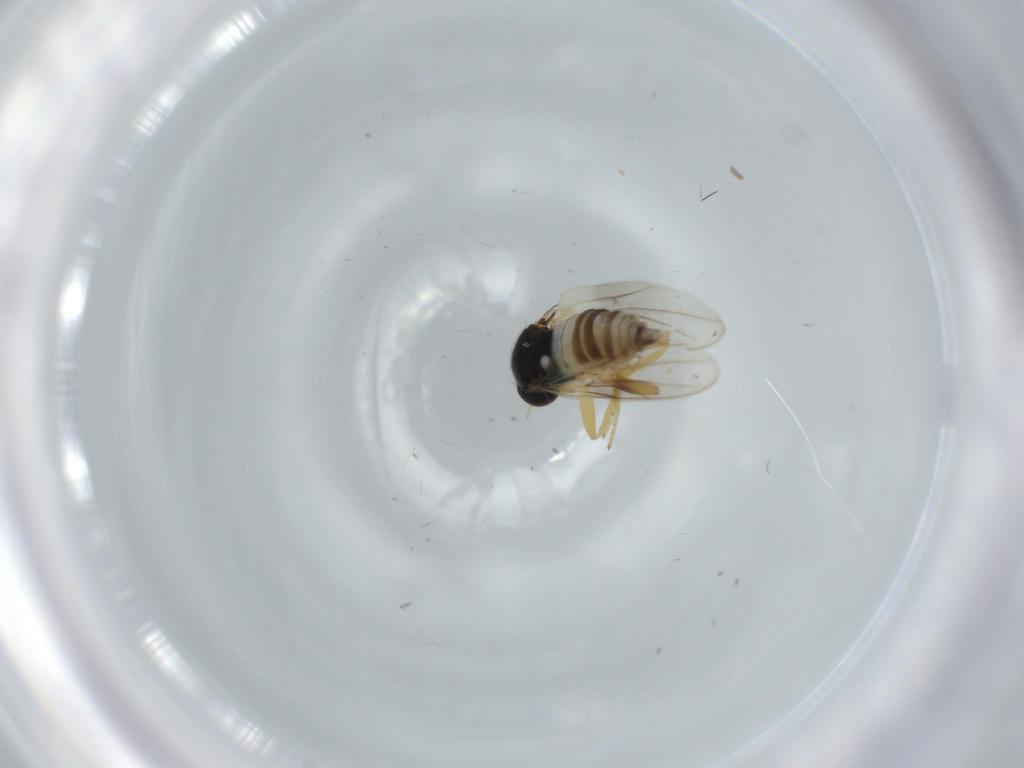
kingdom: Animalia
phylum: Arthropoda
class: Insecta
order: Diptera
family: Hybotidae
